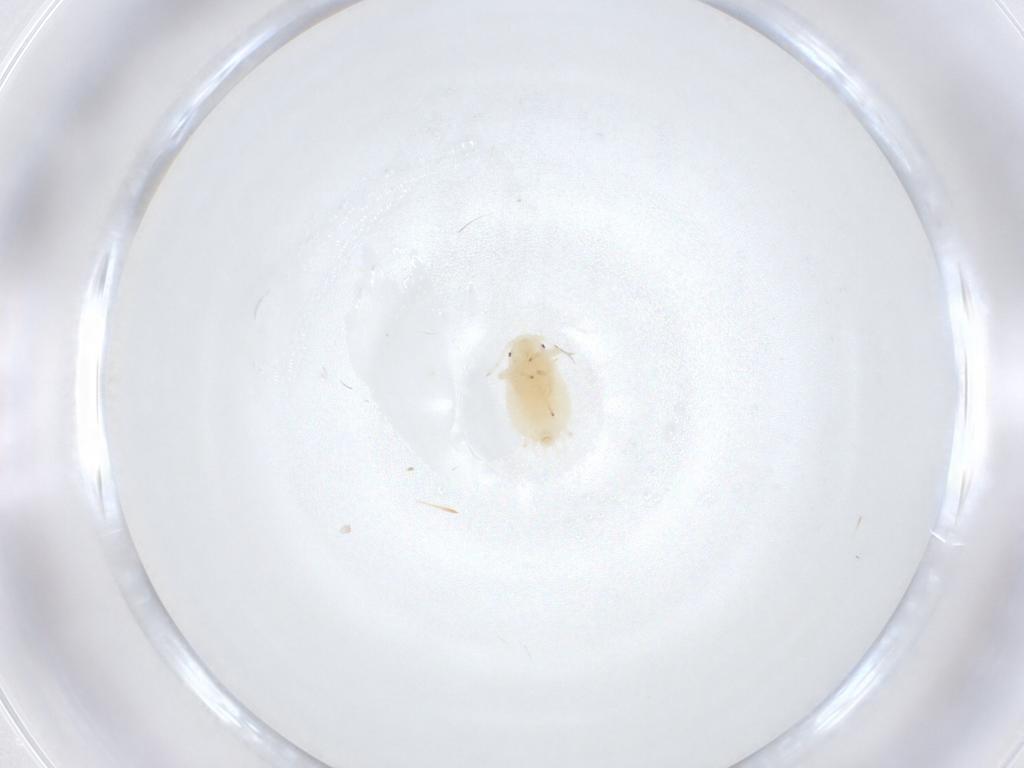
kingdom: Animalia
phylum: Arthropoda
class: Insecta
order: Hemiptera
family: Aphididae
